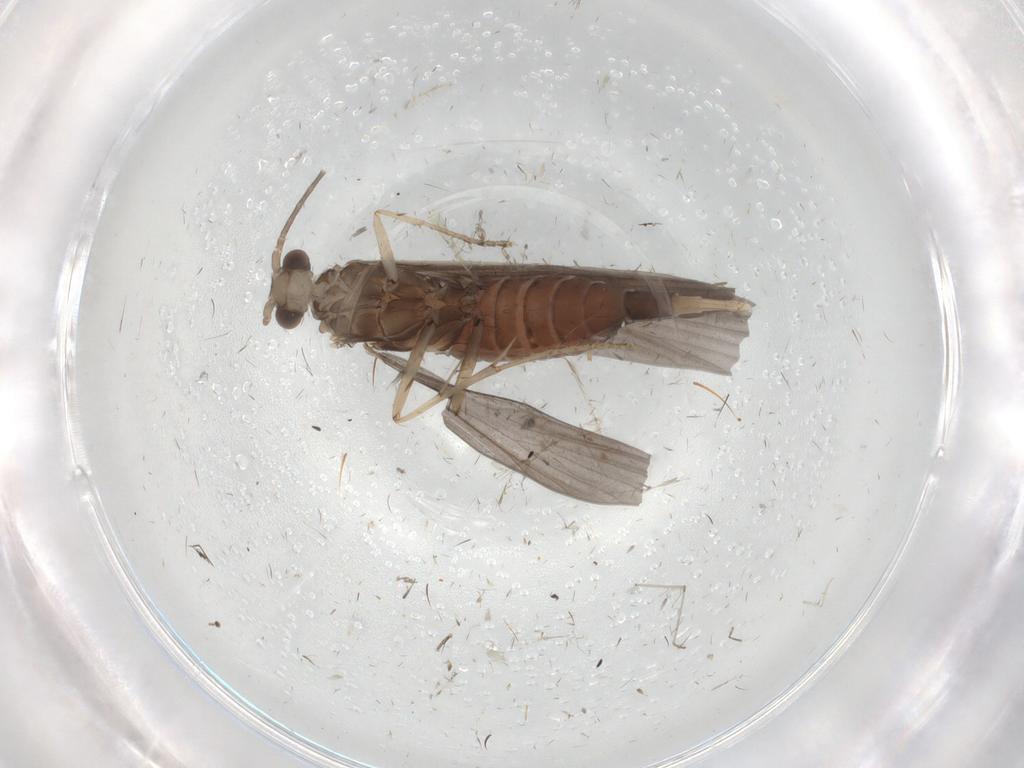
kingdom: Animalia
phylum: Arthropoda
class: Insecta
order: Trichoptera
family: Xiphocentronidae
